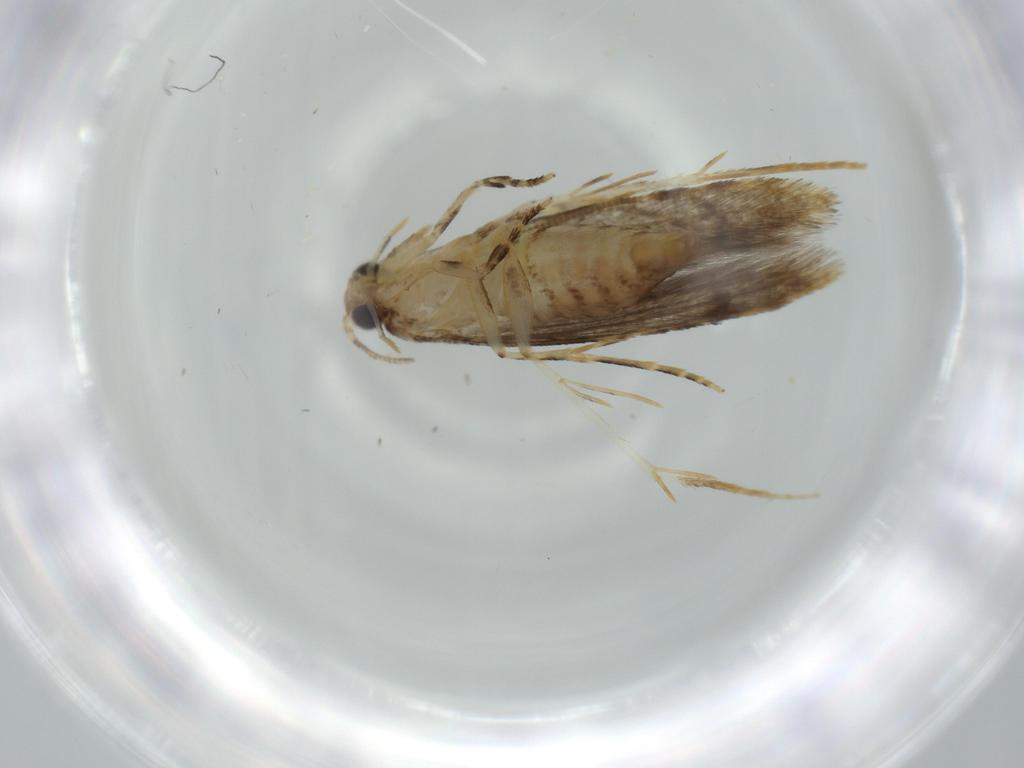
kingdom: Animalia
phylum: Arthropoda
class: Insecta
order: Lepidoptera
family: Tineidae
